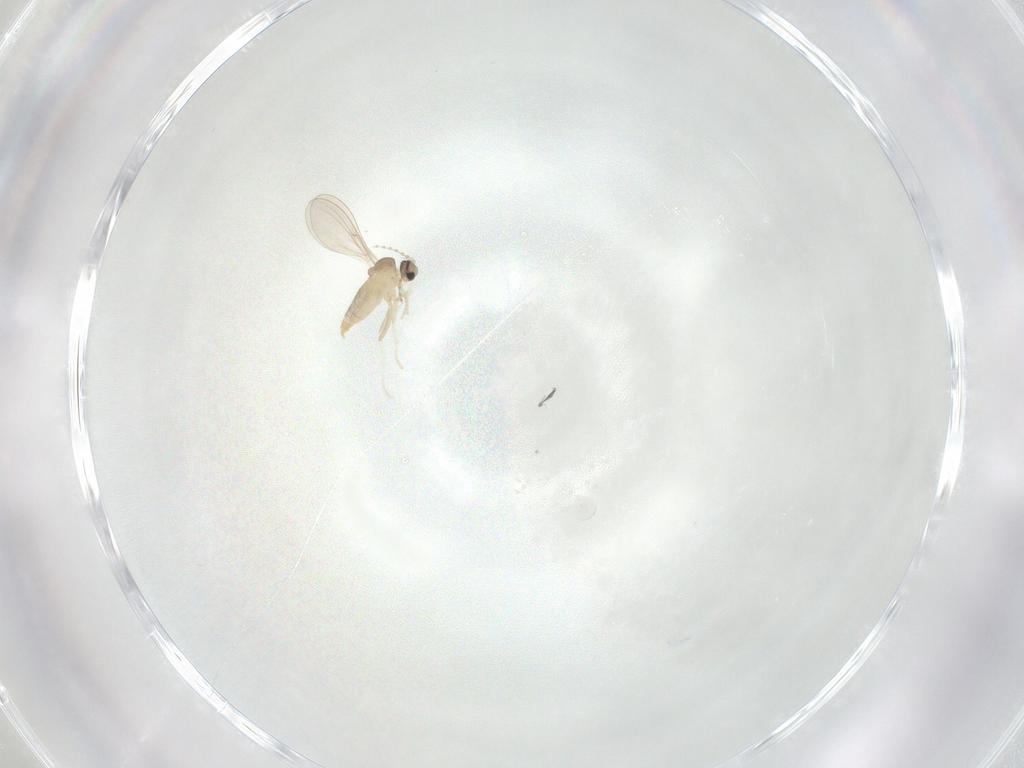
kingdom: Animalia
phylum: Arthropoda
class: Insecta
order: Diptera
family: Cecidomyiidae
